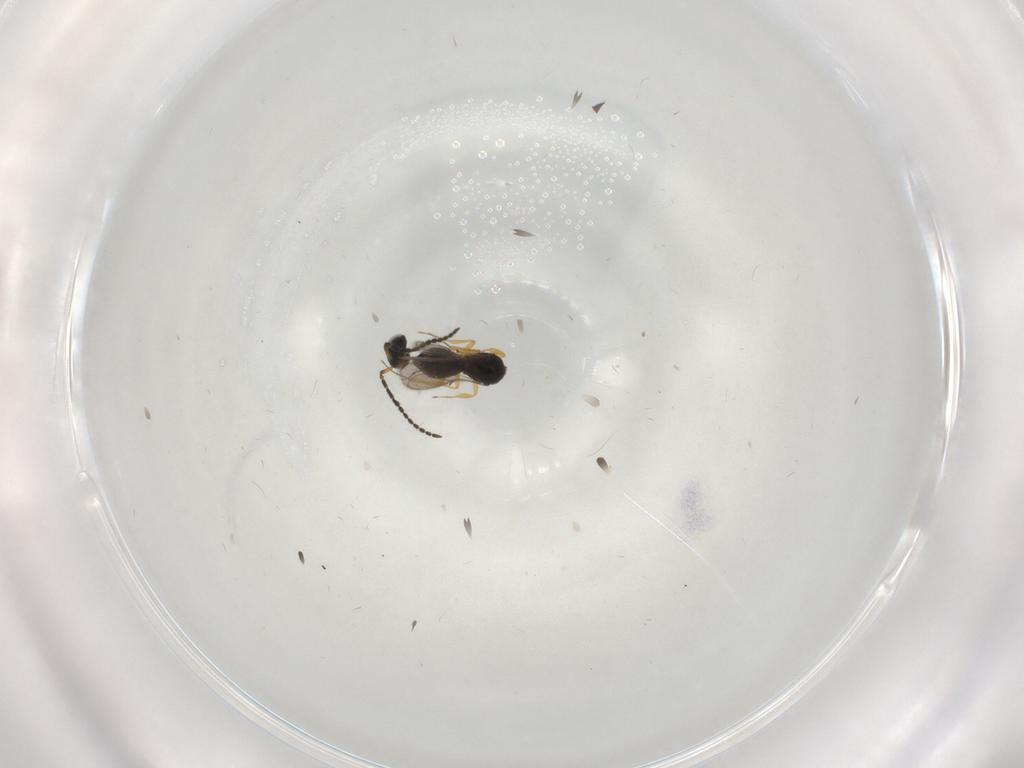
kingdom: Animalia
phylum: Arthropoda
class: Insecta
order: Hymenoptera
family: Scelionidae
